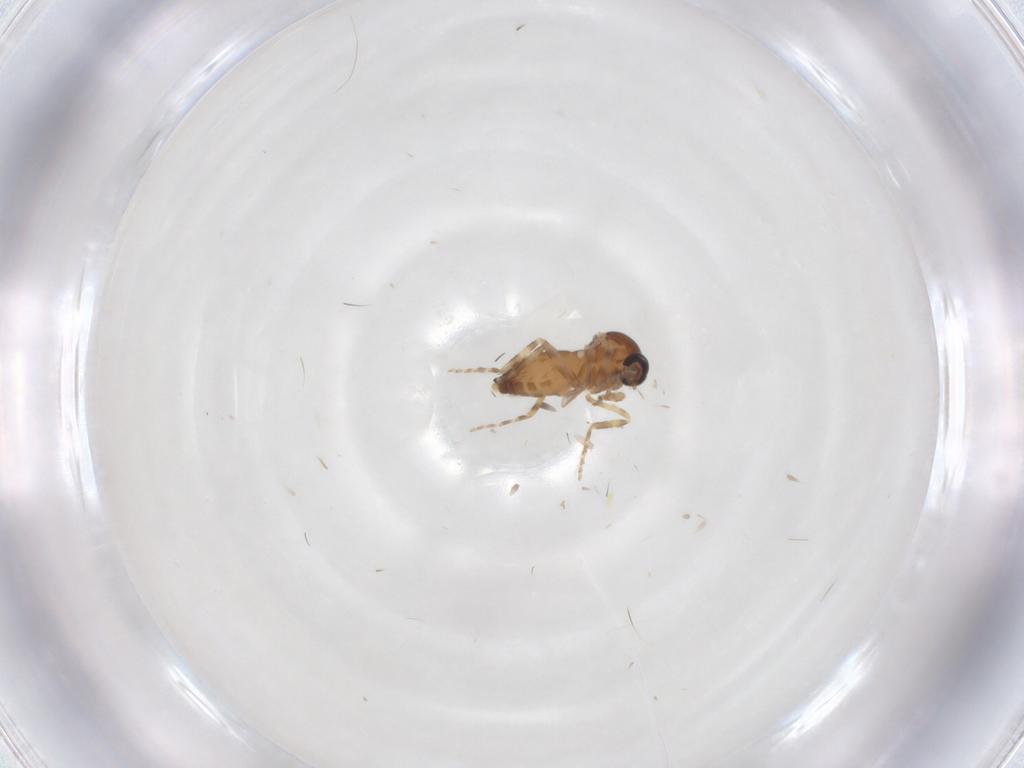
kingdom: Animalia
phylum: Arthropoda
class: Insecta
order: Diptera
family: Ceratopogonidae
